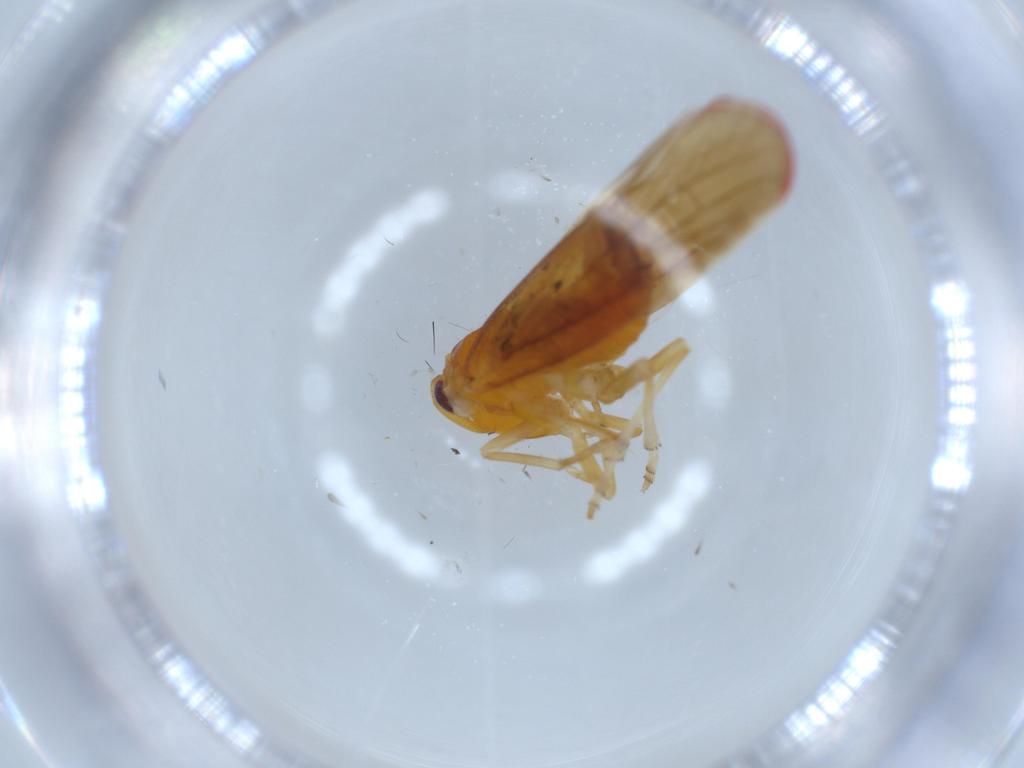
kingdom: Animalia
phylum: Arthropoda
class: Insecta
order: Hemiptera
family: Derbidae
